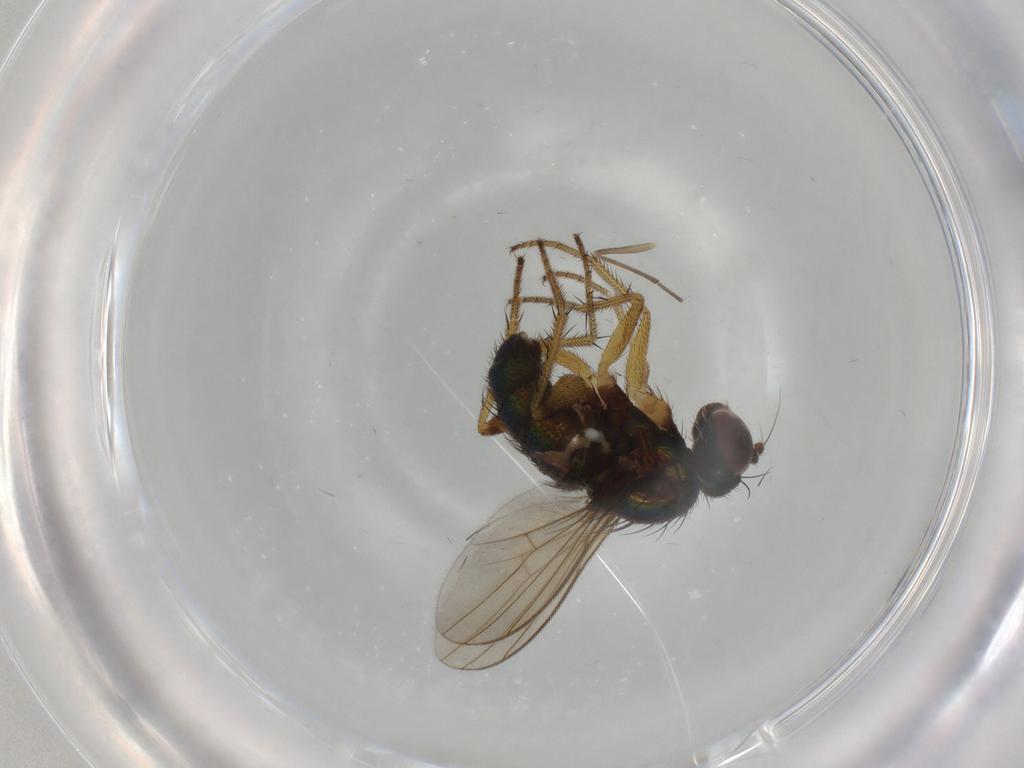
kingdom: Animalia
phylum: Arthropoda
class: Insecta
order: Diptera
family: Dolichopodidae
